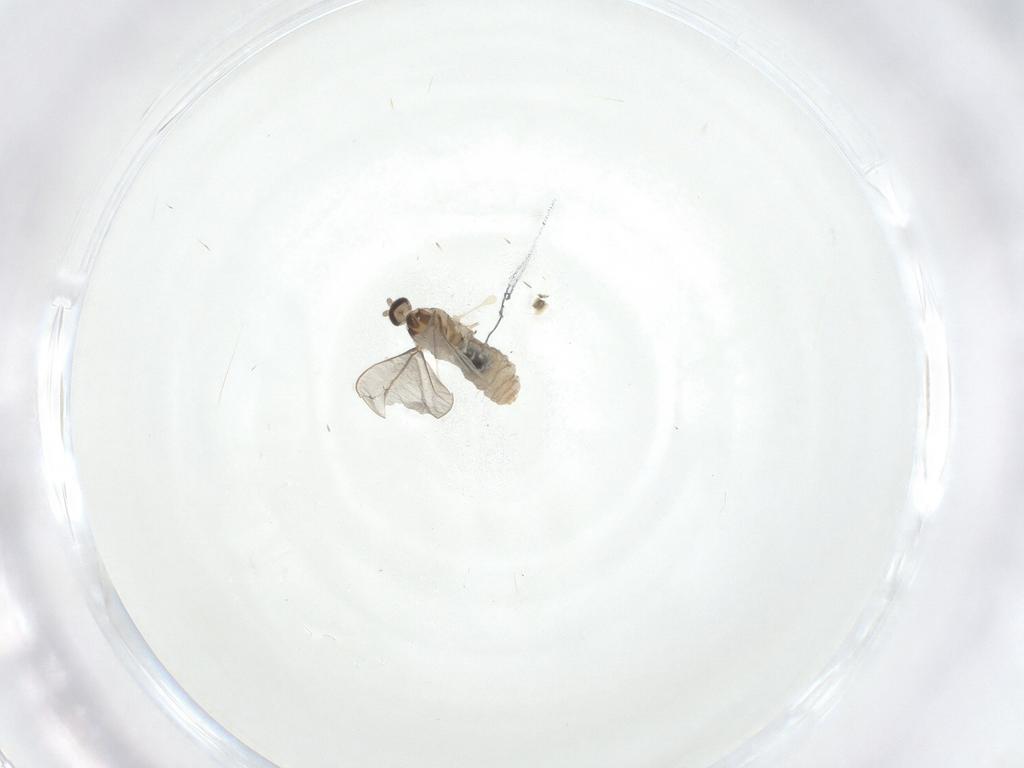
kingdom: Animalia
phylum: Arthropoda
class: Insecta
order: Diptera
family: Cecidomyiidae
